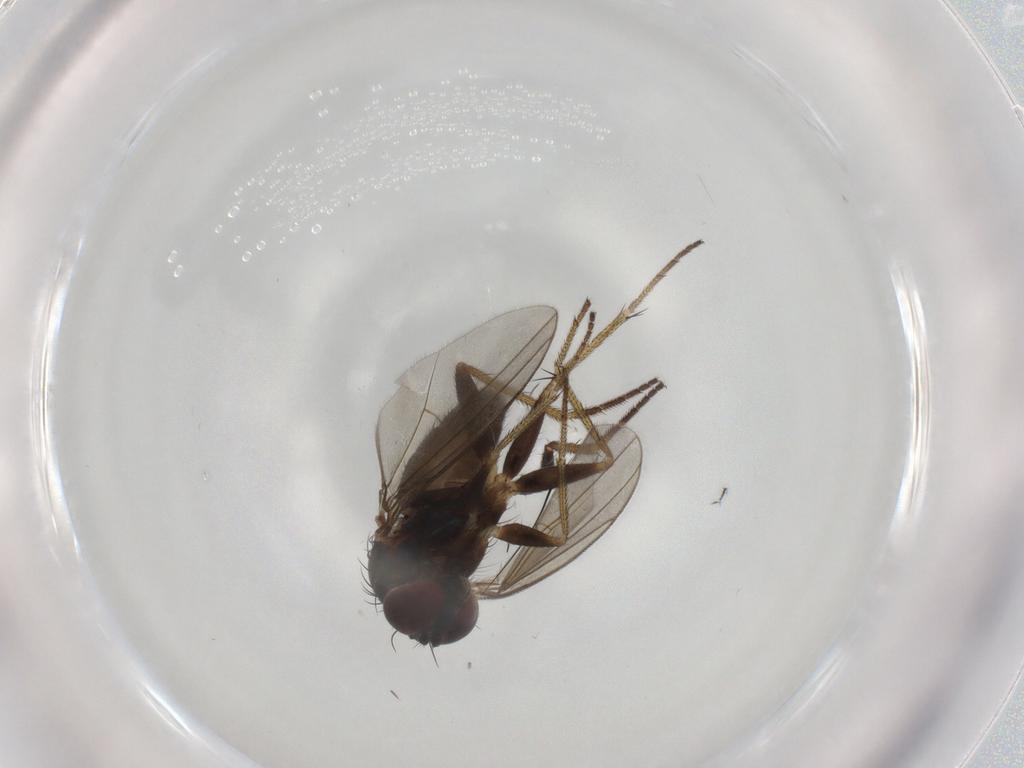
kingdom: Animalia
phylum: Arthropoda
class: Insecta
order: Diptera
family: Dolichopodidae
